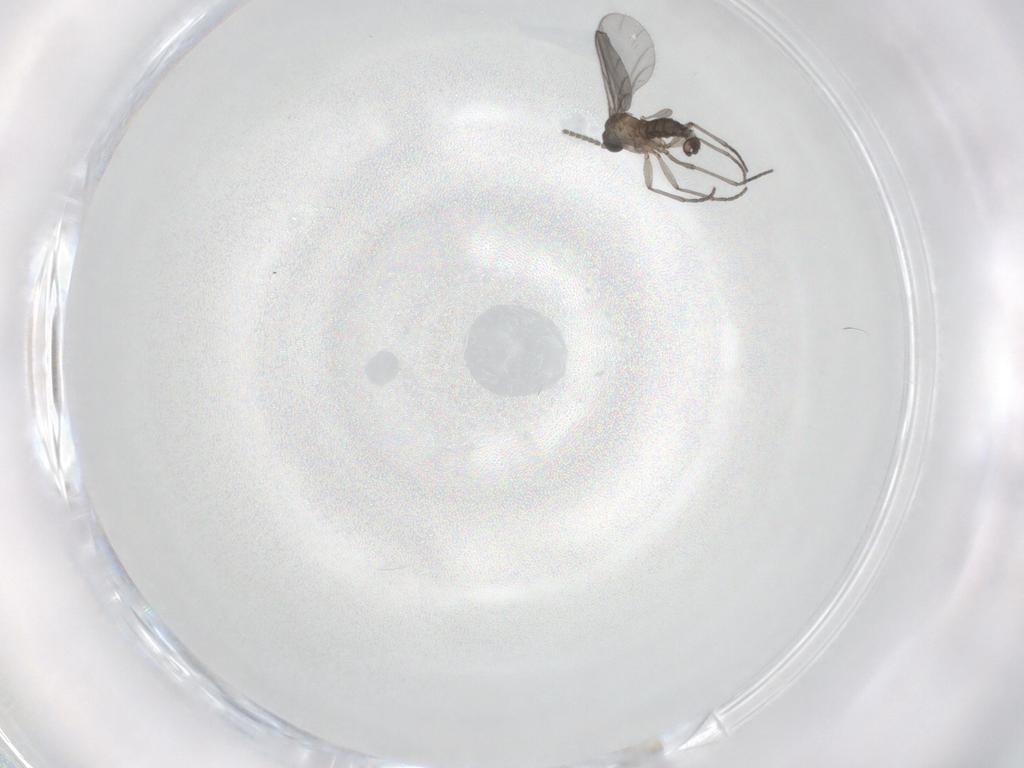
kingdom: Animalia
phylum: Arthropoda
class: Insecta
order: Diptera
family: Sciaridae
